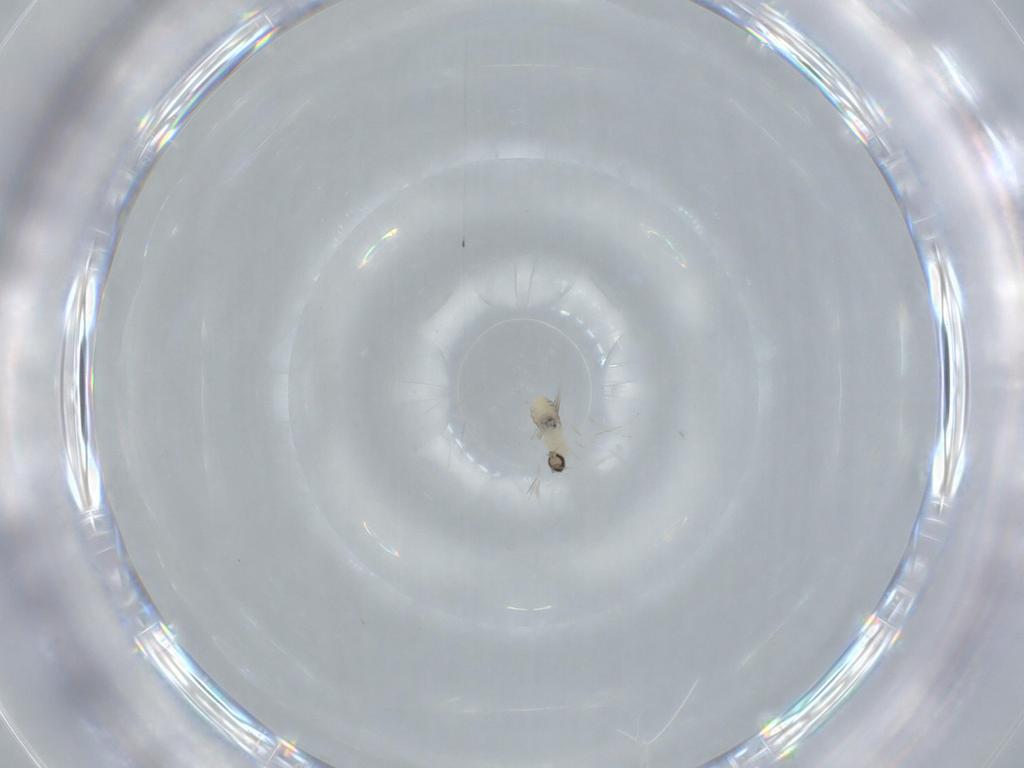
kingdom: Animalia
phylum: Arthropoda
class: Insecta
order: Diptera
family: Cecidomyiidae
